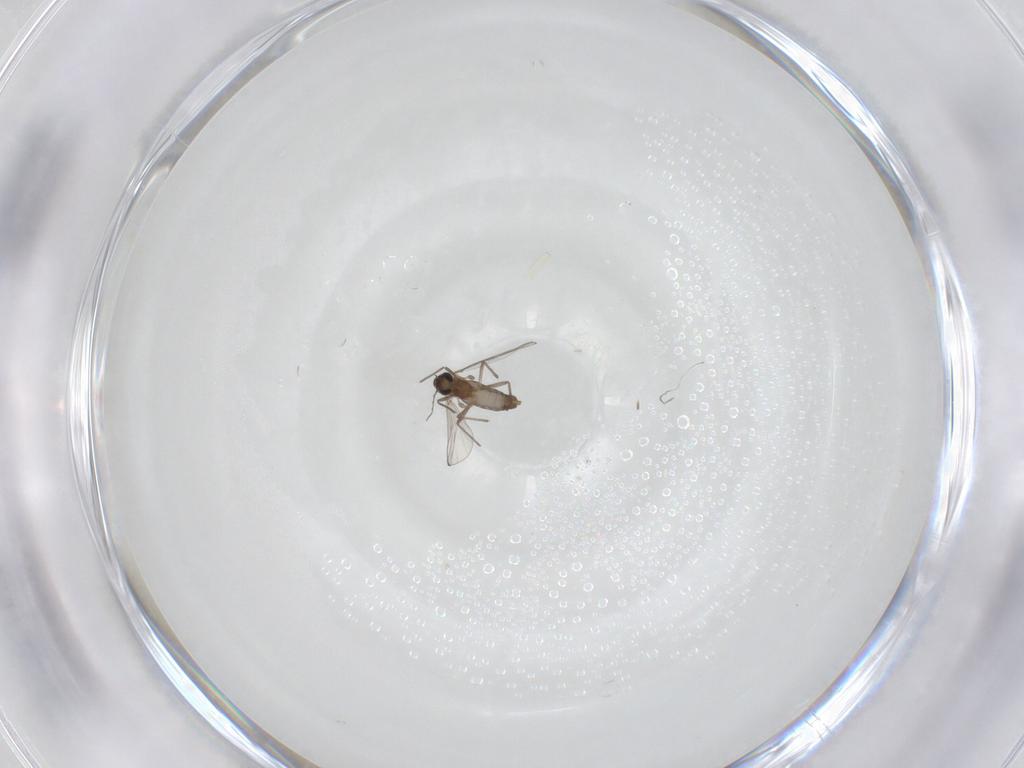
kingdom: Animalia
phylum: Arthropoda
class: Insecta
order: Diptera
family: Chironomidae
